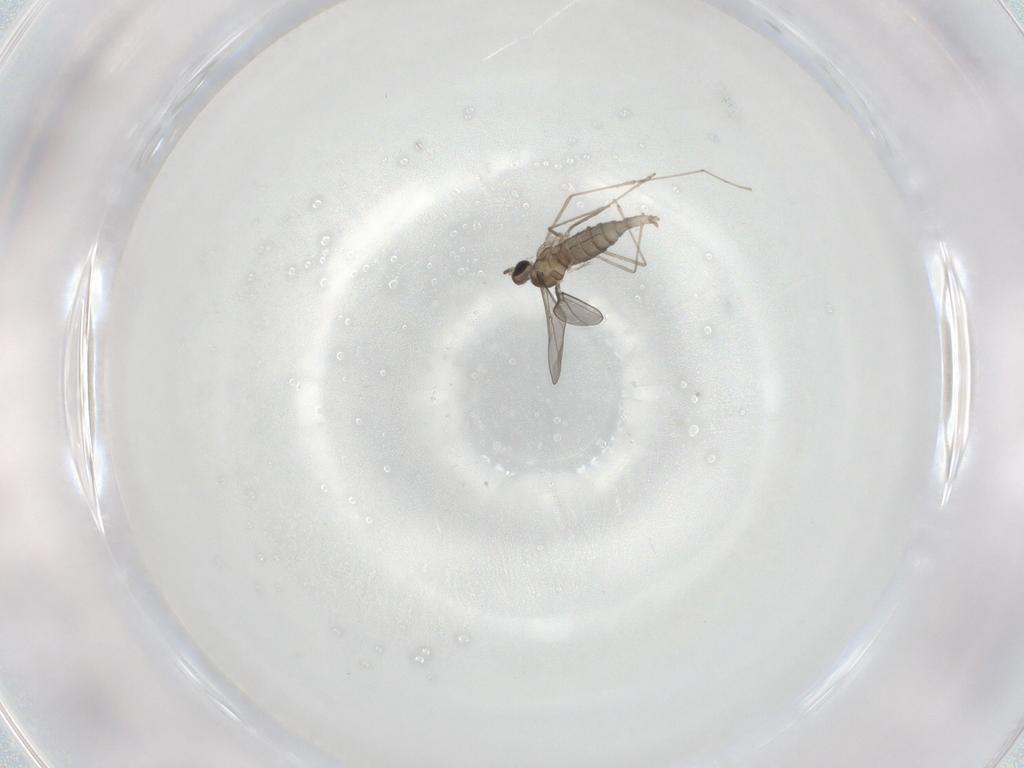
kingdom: Animalia
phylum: Arthropoda
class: Insecta
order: Diptera
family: Cecidomyiidae
